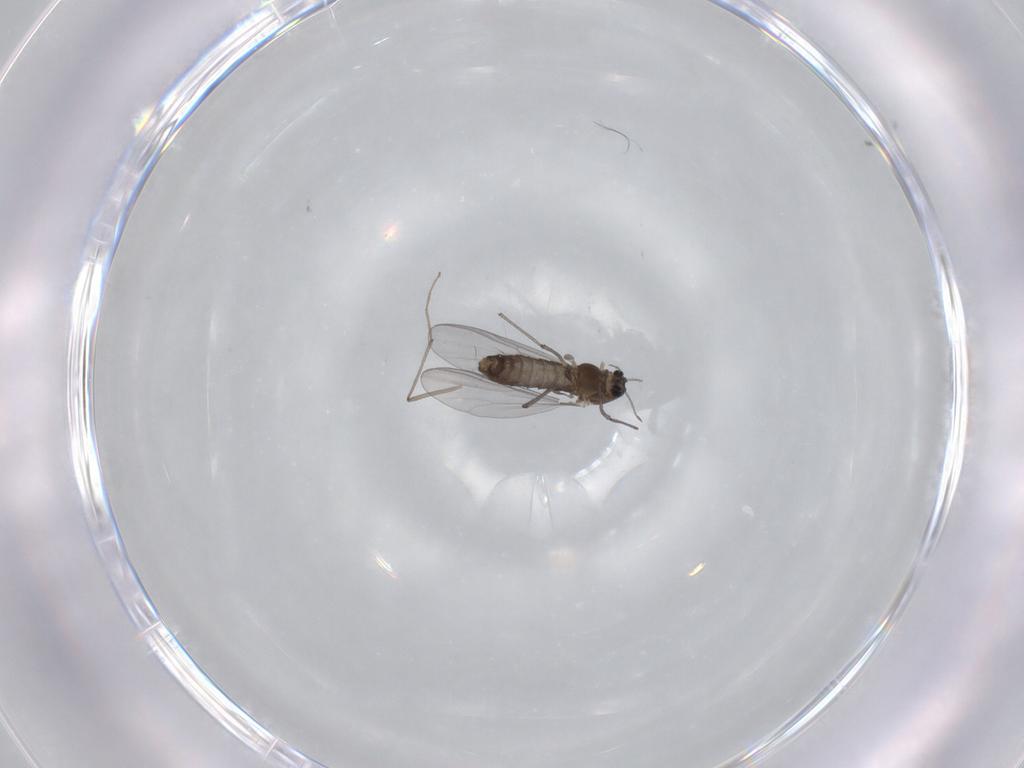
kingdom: Animalia
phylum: Arthropoda
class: Insecta
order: Diptera
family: Chironomidae
